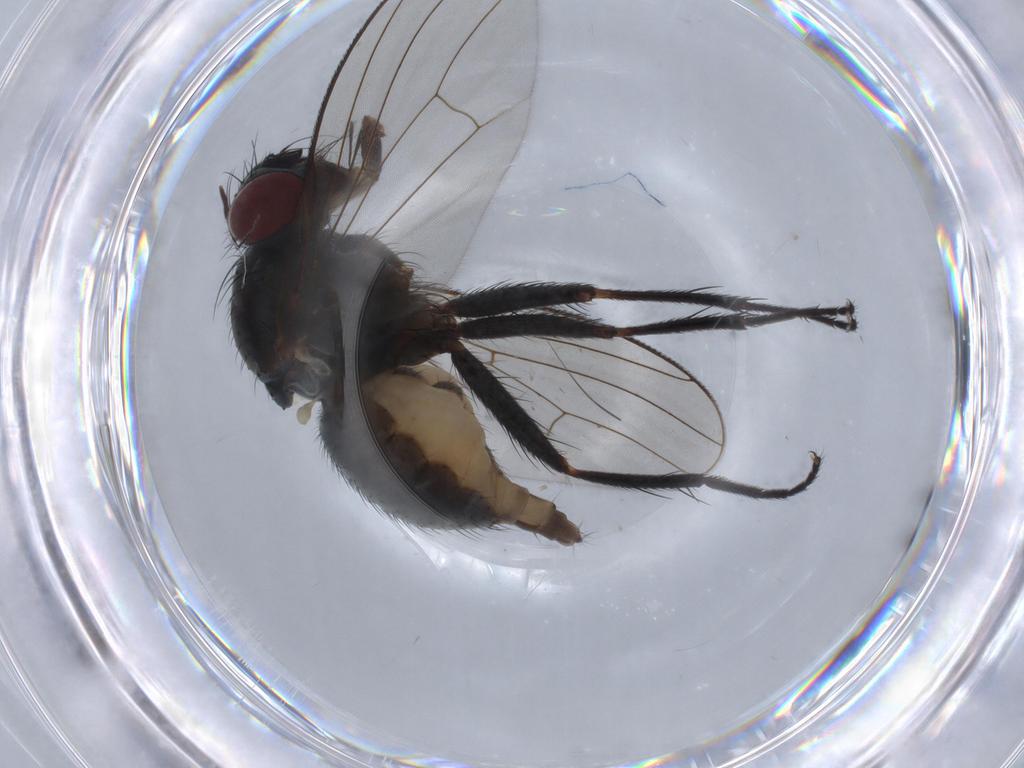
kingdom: Animalia
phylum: Arthropoda
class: Insecta
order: Diptera
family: Muscidae
